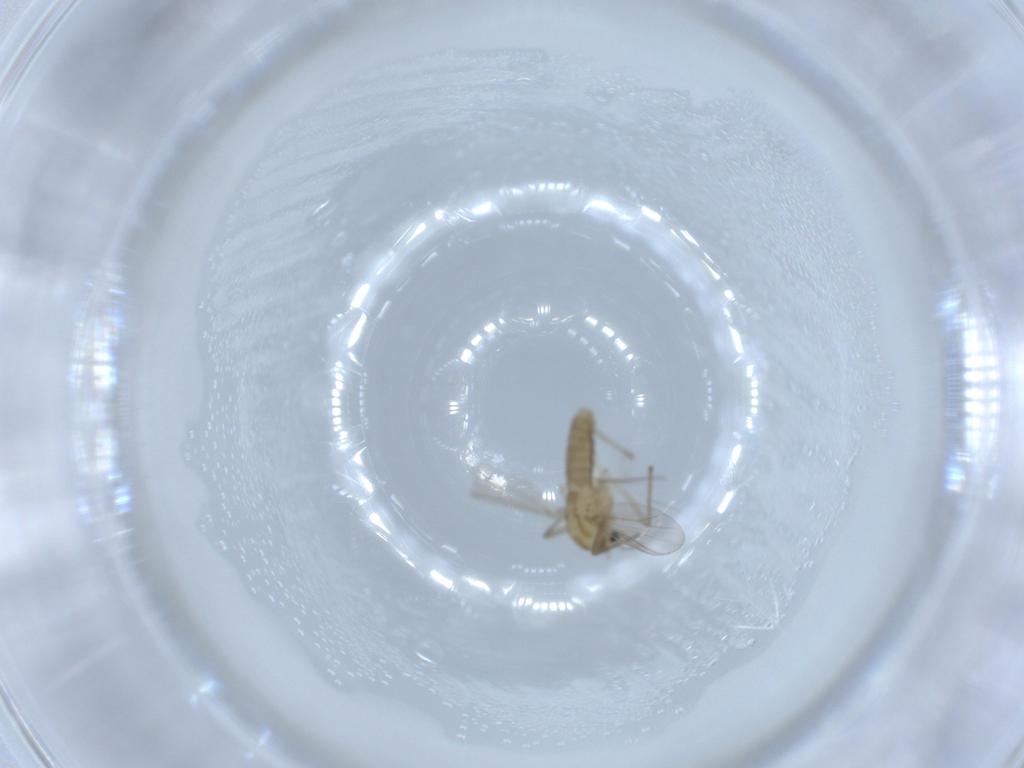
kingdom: Animalia
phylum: Arthropoda
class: Insecta
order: Diptera
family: Chironomidae
